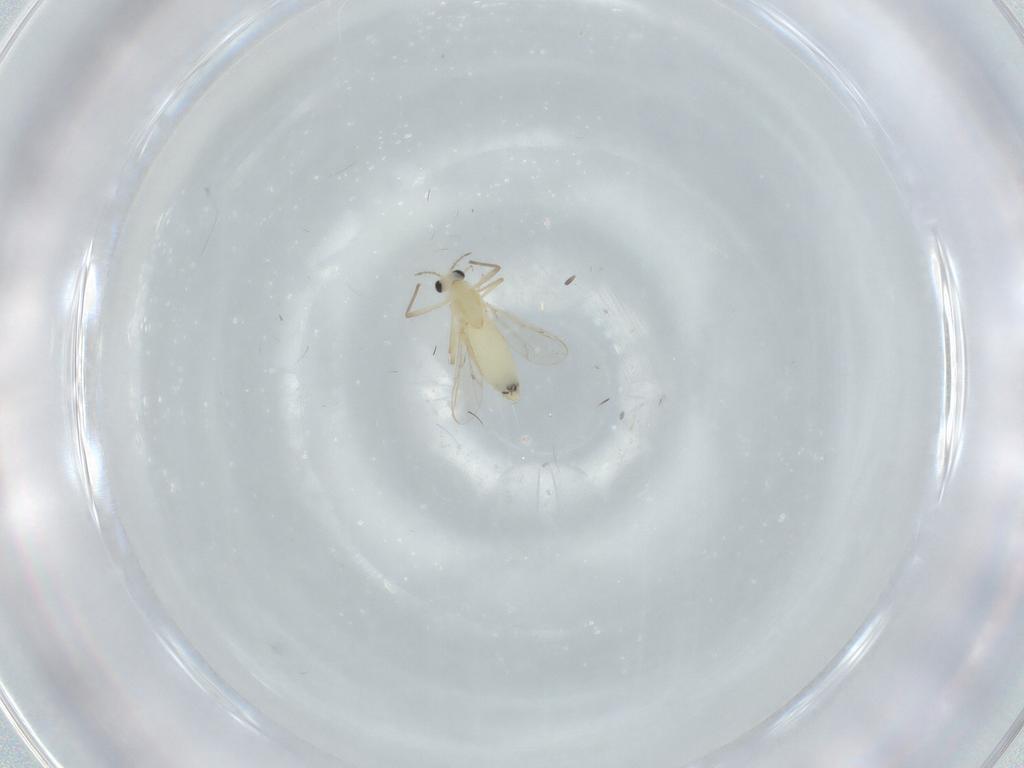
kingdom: Animalia
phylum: Arthropoda
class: Insecta
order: Diptera
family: Chironomidae
